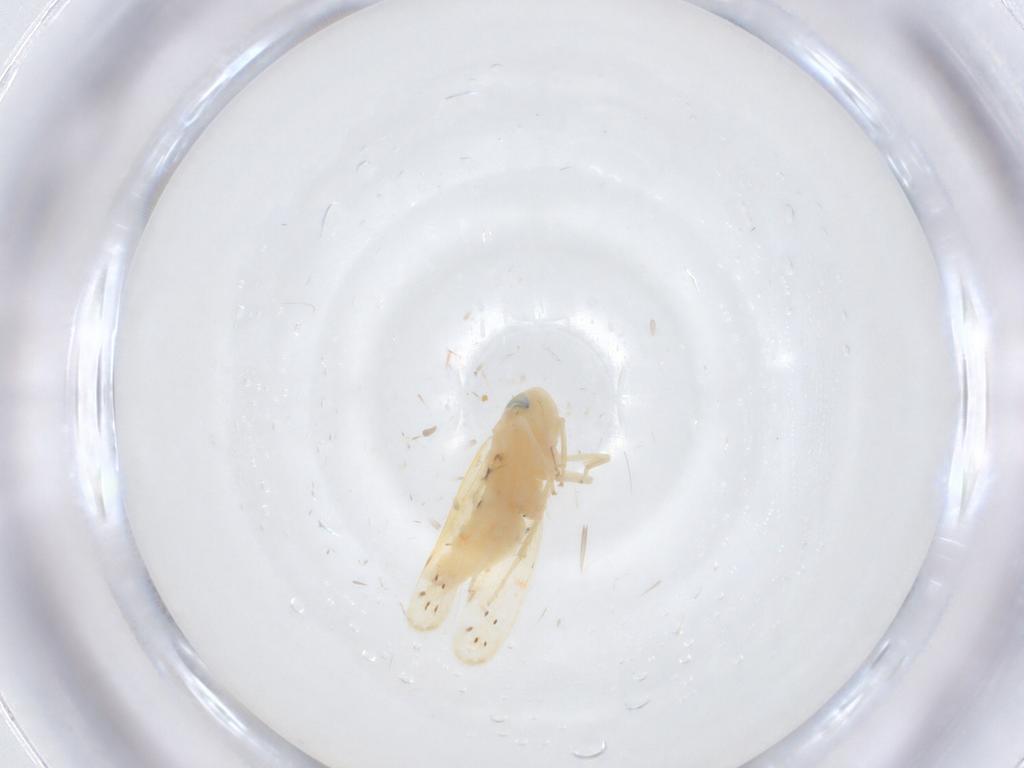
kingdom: Animalia
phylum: Arthropoda
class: Insecta
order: Hemiptera
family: Cicadellidae
